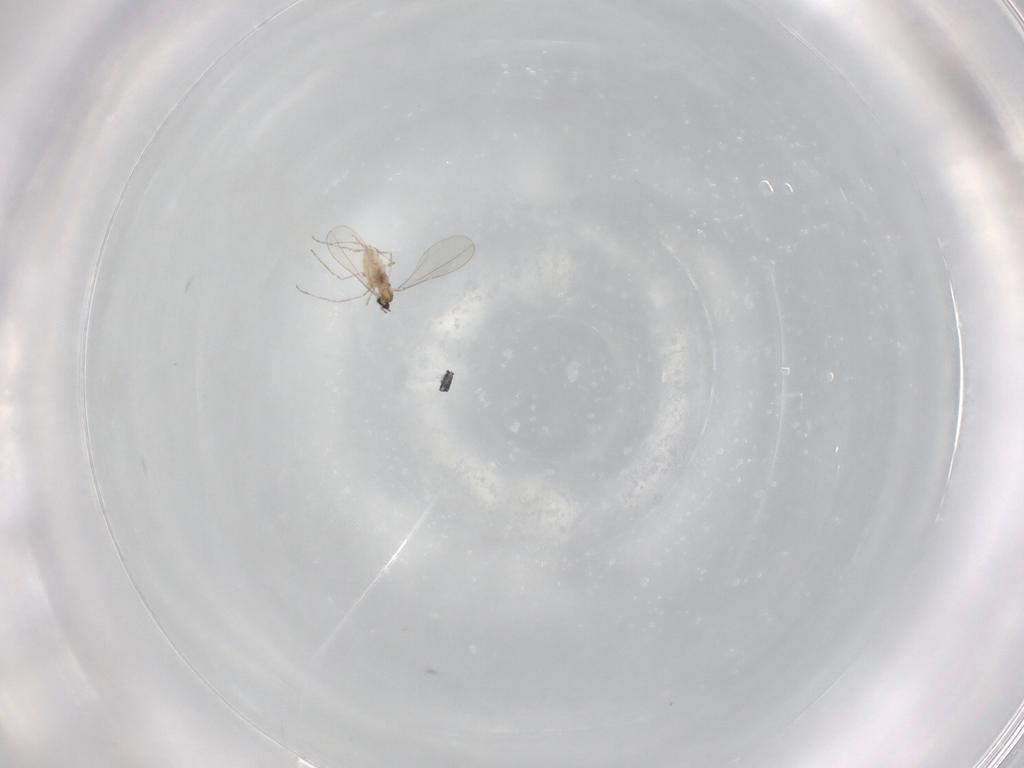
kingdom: Animalia
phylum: Arthropoda
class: Insecta
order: Diptera
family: Cecidomyiidae
